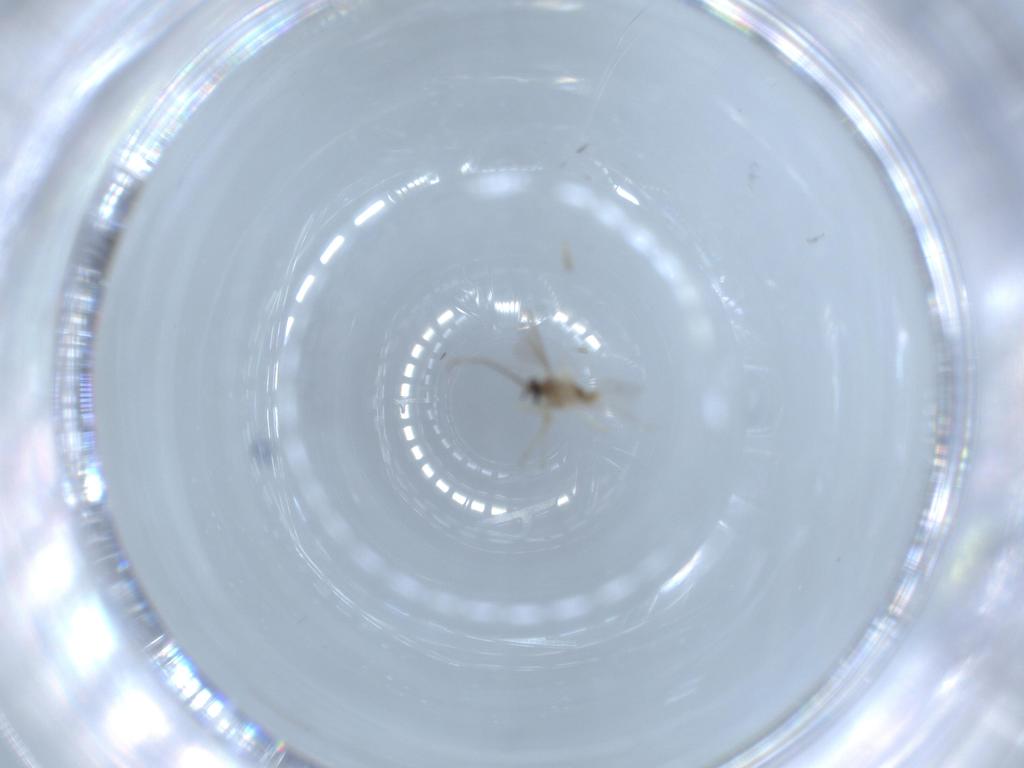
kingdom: Animalia
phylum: Arthropoda
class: Insecta
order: Diptera
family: Cecidomyiidae
